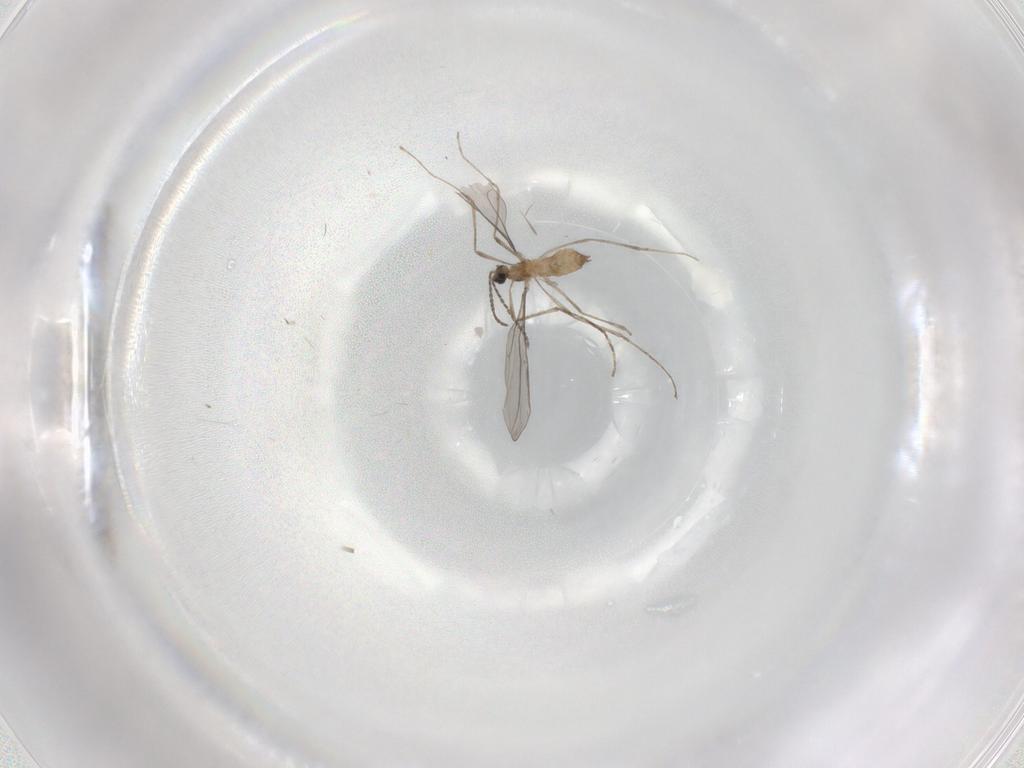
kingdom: Animalia
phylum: Arthropoda
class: Insecta
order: Diptera
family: Cecidomyiidae
